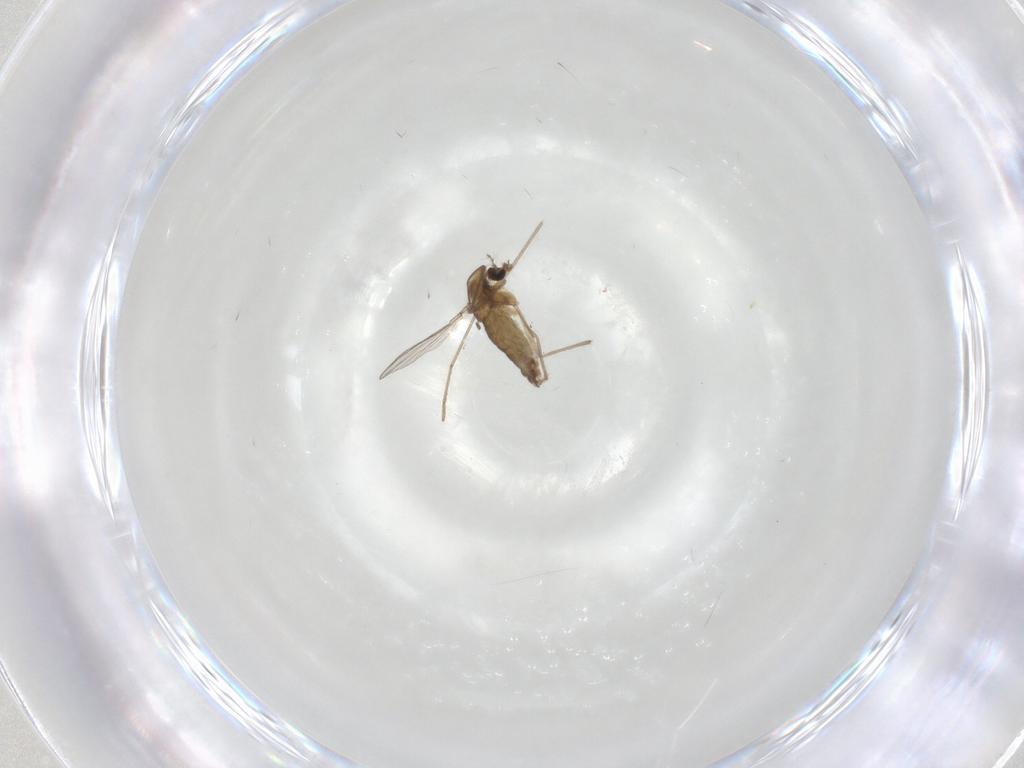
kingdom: Animalia
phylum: Arthropoda
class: Insecta
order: Diptera
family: Chironomidae
